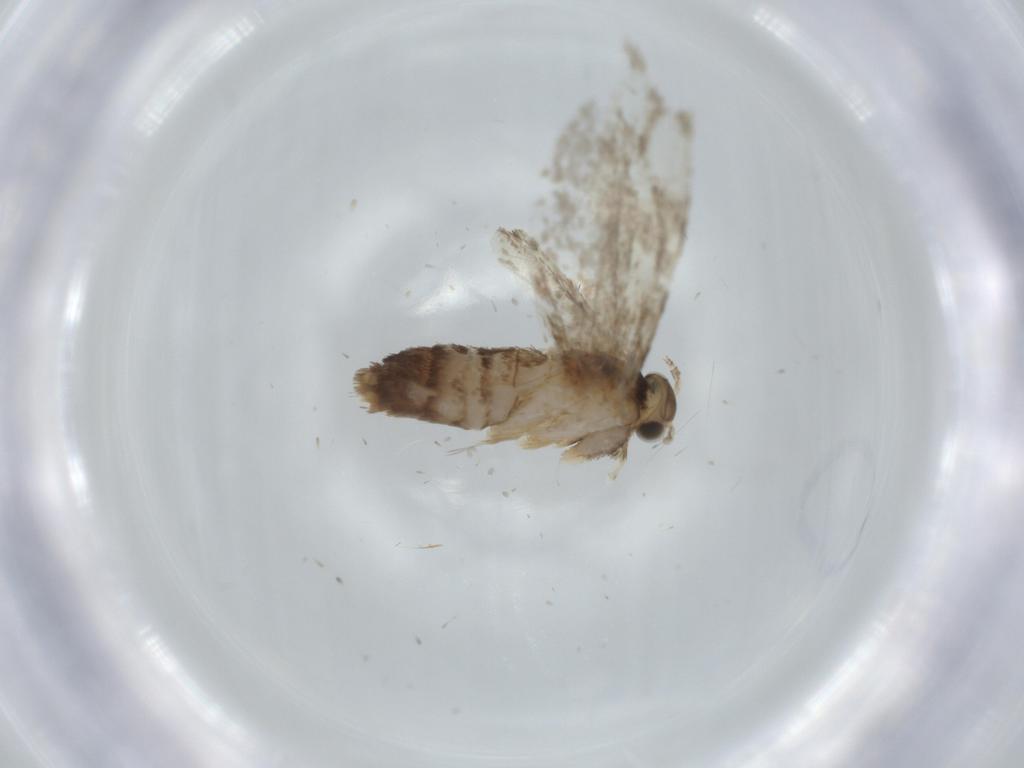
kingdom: Animalia
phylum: Arthropoda
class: Insecta
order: Lepidoptera
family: Tineidae
